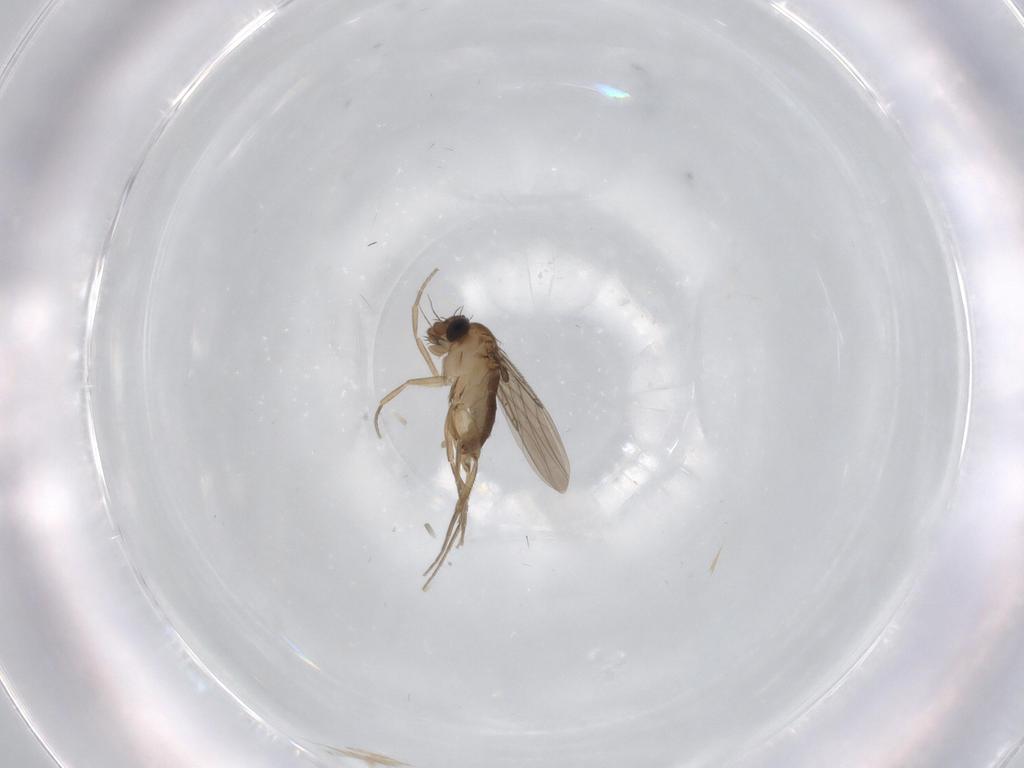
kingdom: Animalia
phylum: Arthropoda
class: Insecta
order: Diptera
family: Phoridae
